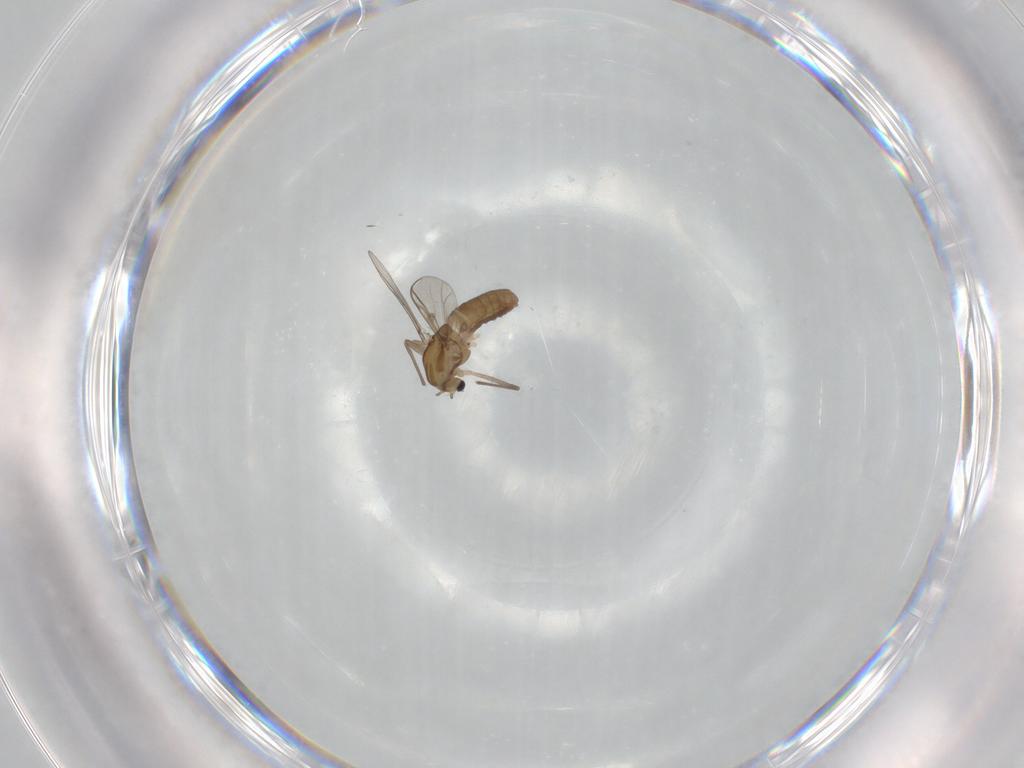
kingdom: Animalia
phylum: Arthropoda
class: Insecta
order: Diptera
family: Chironomidae
